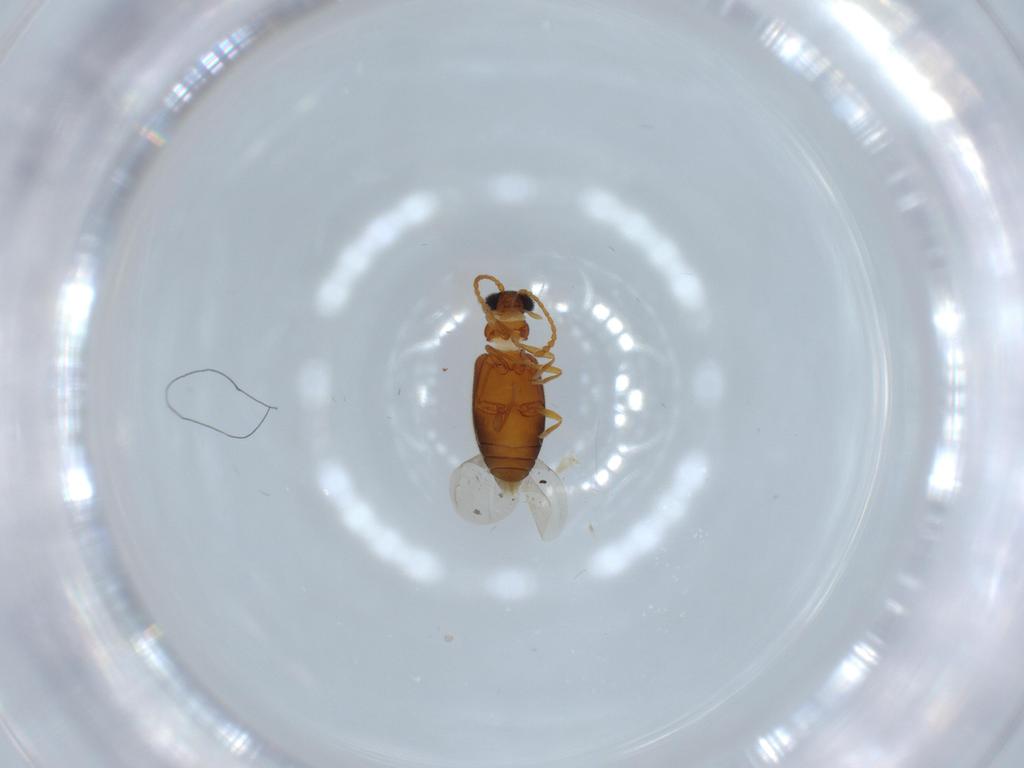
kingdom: Animalia
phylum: Arthropoda
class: Insecta
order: Coleoptera
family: Aderidae
